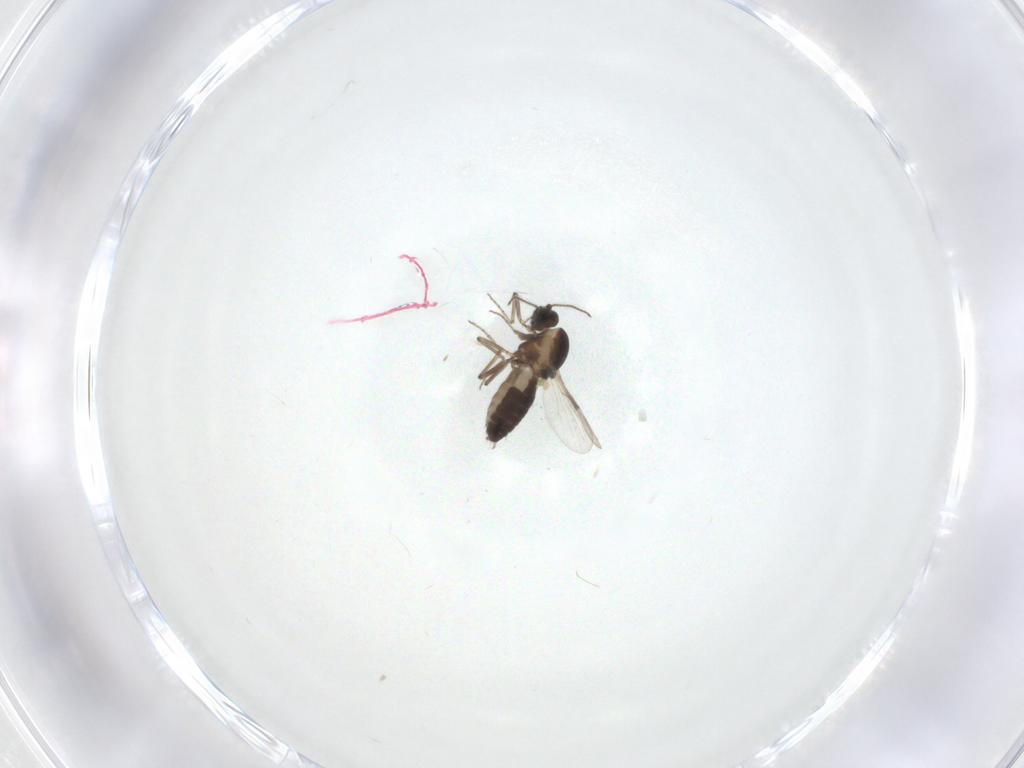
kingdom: Animalia
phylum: Arthropoda
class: Insecta
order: Diptera
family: Ceratopogonidae
